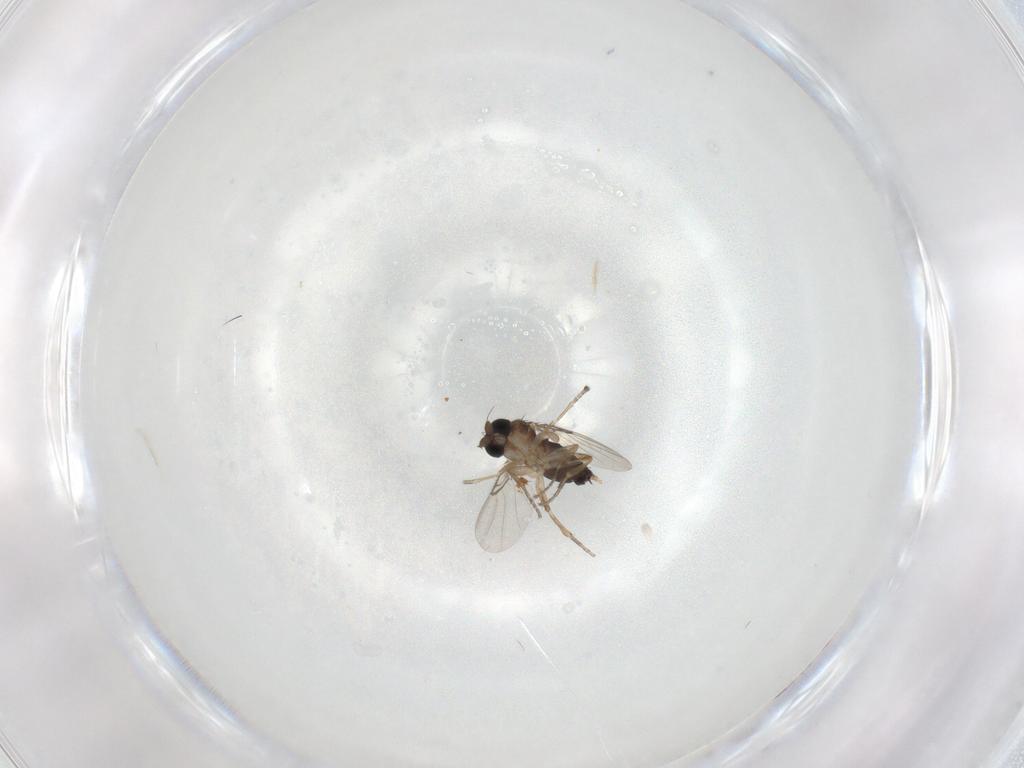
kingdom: Animalia
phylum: Arthropoda
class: Insecta
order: Diptera
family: Phoridae
